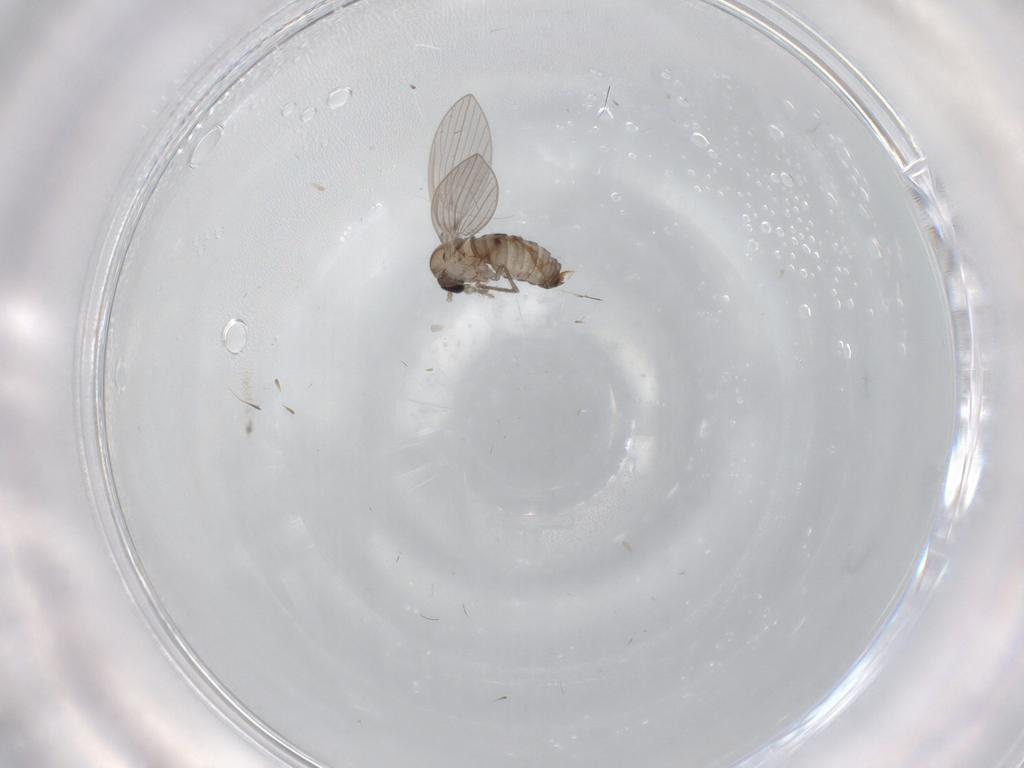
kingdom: Animalia
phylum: Arthropoda
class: Insecta
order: Diptera
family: Psychodidae
